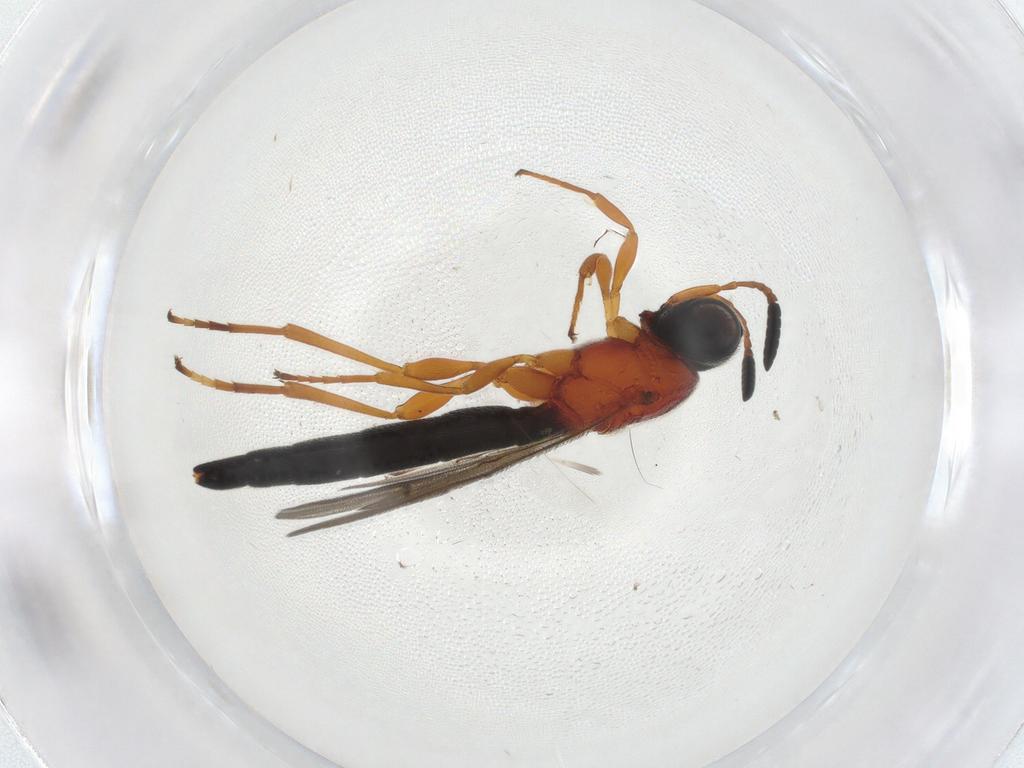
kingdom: Animalia
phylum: Arthropoda
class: Insecta
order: Hymenoptera
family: Scelionidae
